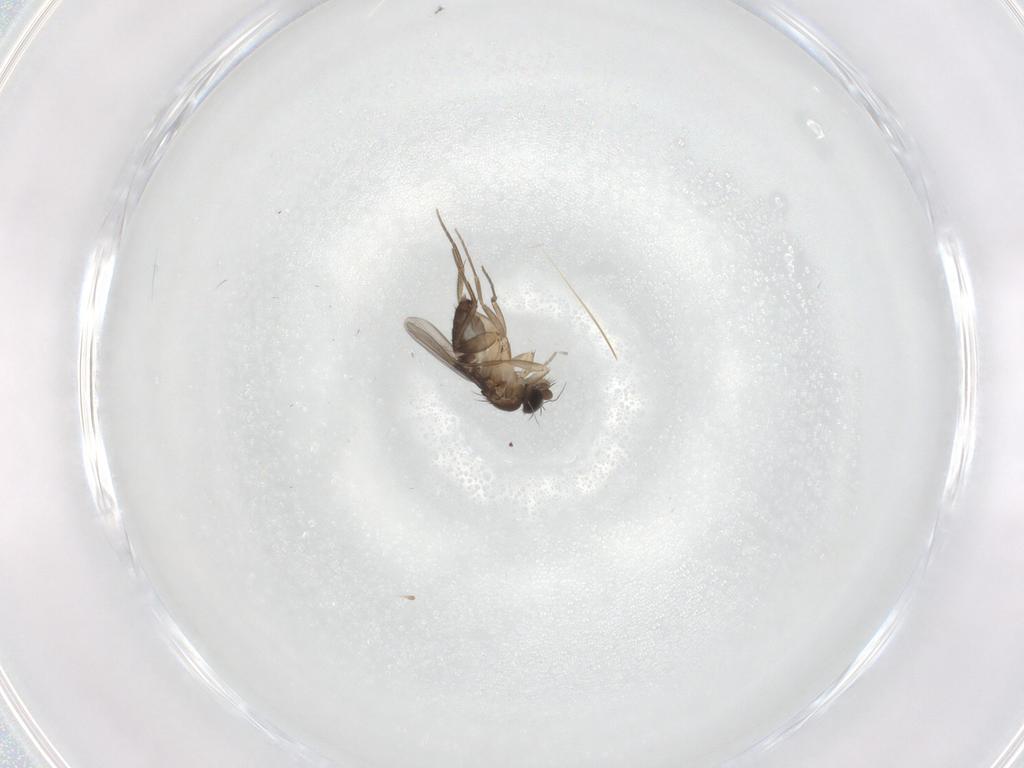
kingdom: Animalia
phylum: Arthropoda
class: Insecta
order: Diptera
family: Phoridae
